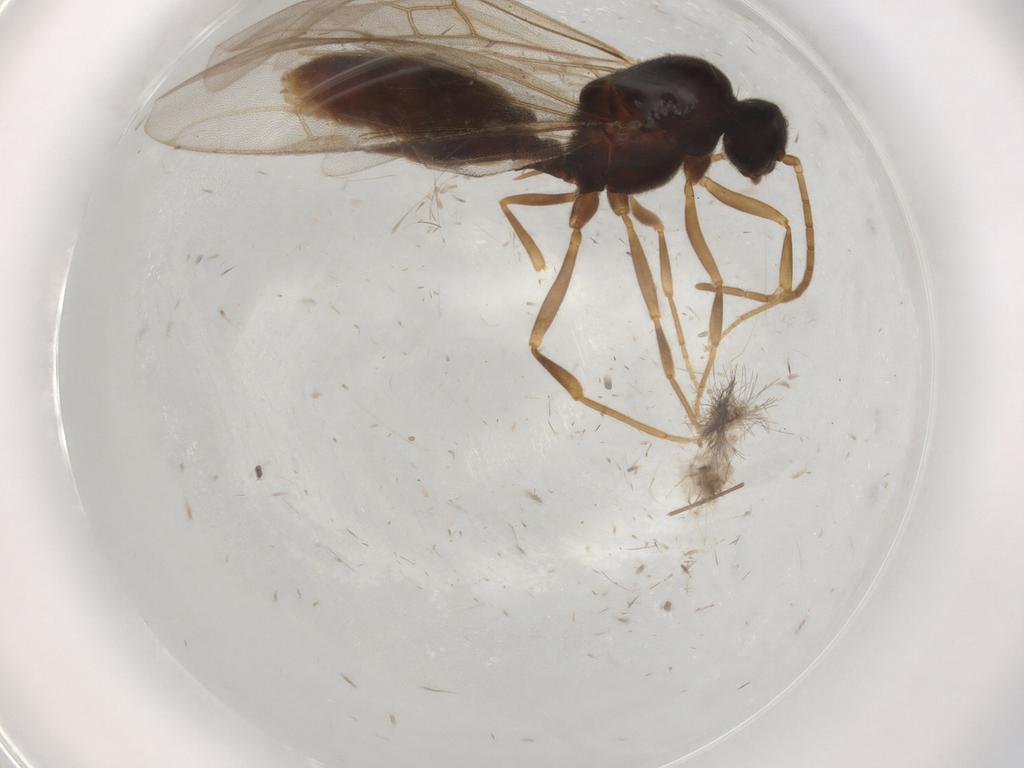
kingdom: Animalia
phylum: Arthropoda
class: Insecta
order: Hymenoptera
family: Formicidae
